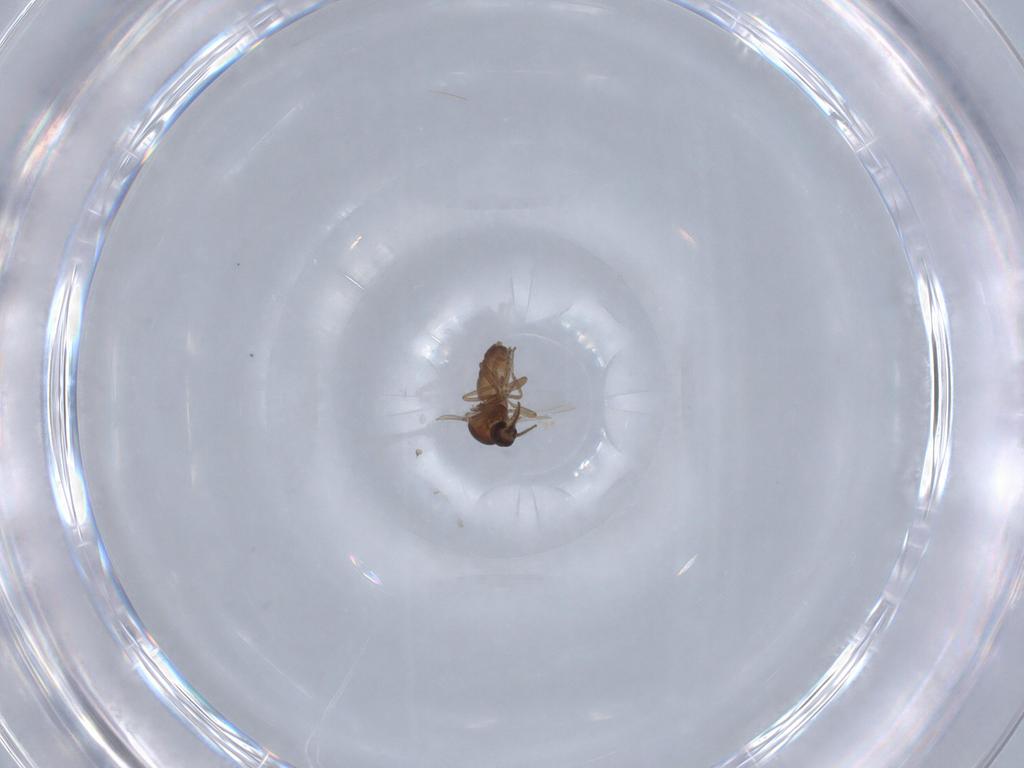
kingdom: Animalia
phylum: Arthropoda
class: Insecta
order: Diptera
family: Ceratopogonidae
